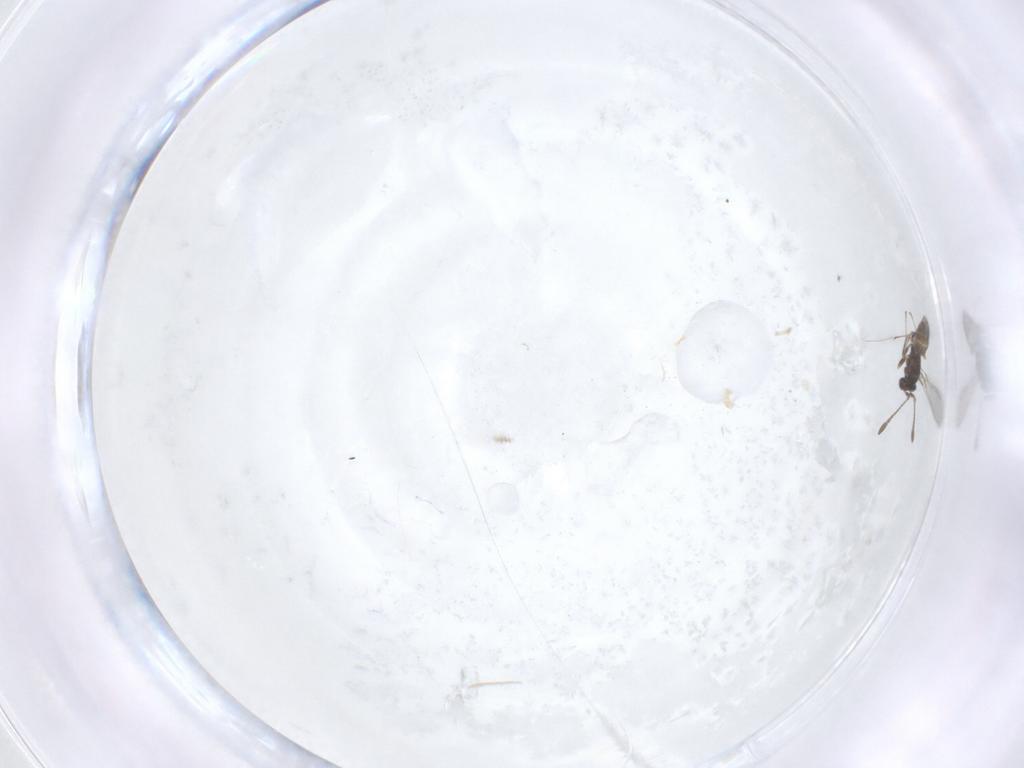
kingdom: Animalia
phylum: Arthropoda
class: Insecta
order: Hymenoptera
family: Mymaridae
